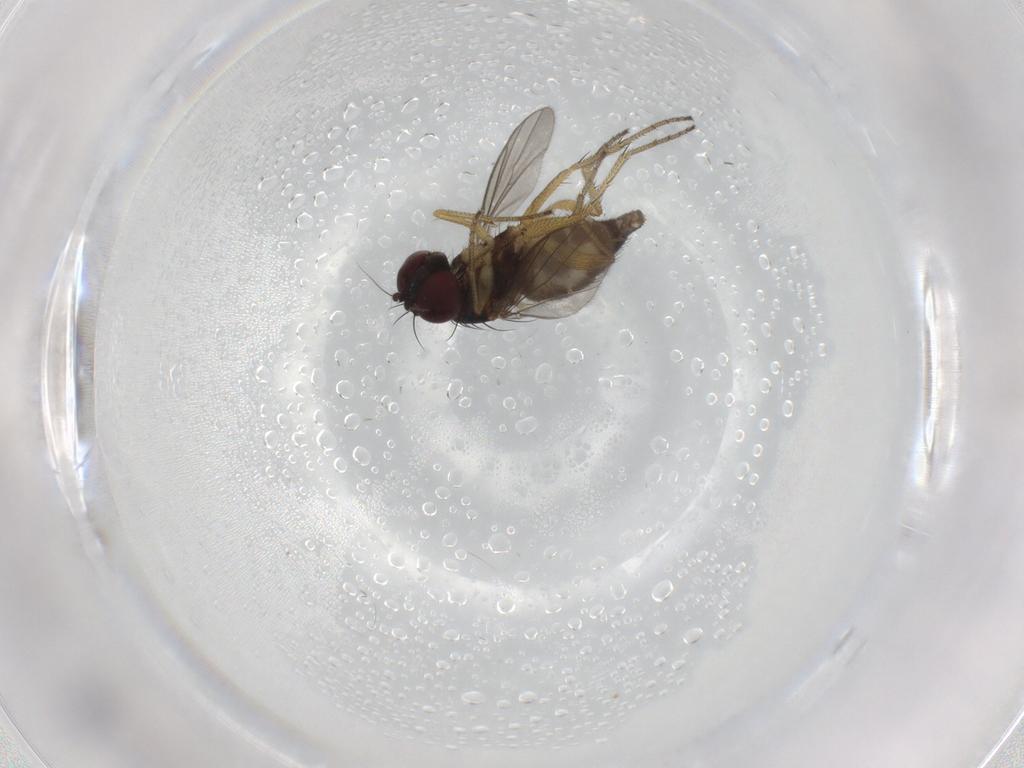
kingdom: Animalia
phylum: Arthropoda
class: Insecta
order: Diptera
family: Dolichopodidae
